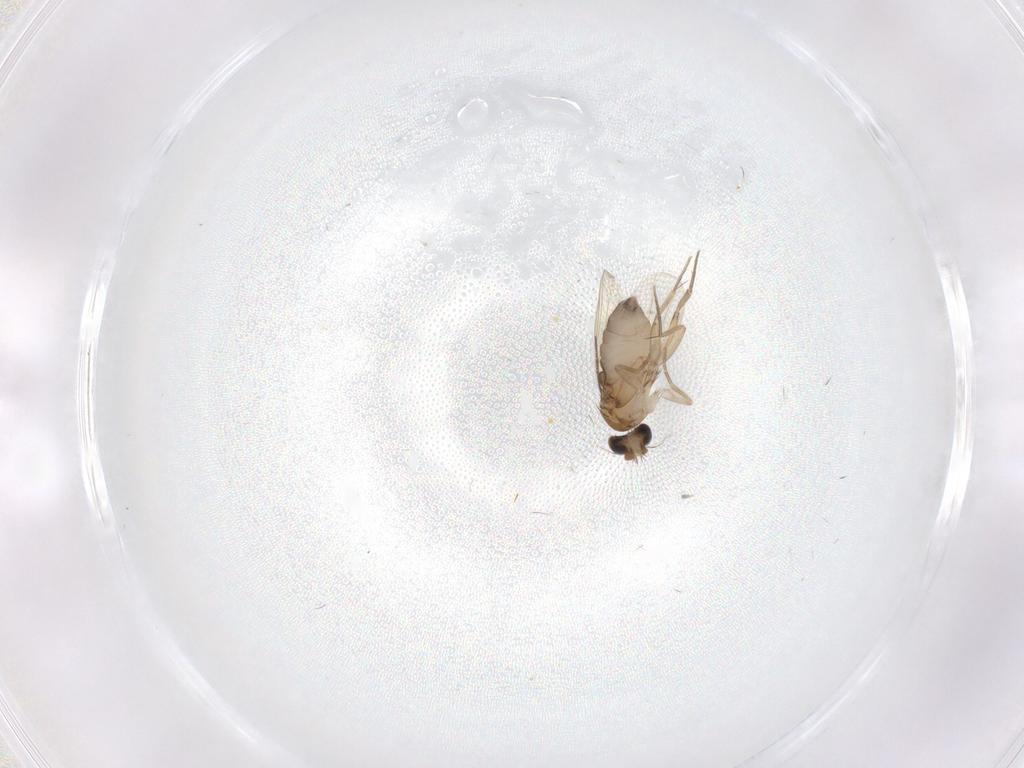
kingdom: Animalia
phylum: Arthropoda
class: Insecta
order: Diptera
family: Phoridae
